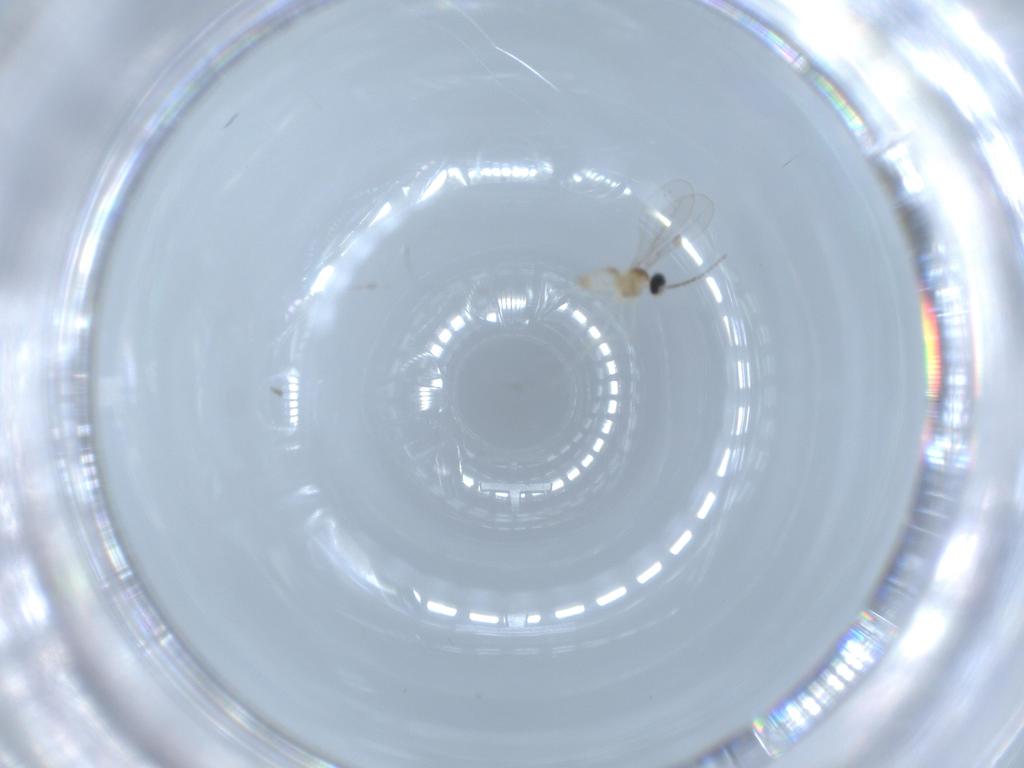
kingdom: Animalia
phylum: Arthropoda
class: Insecta
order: Diptera
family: Cecidomyiidae
